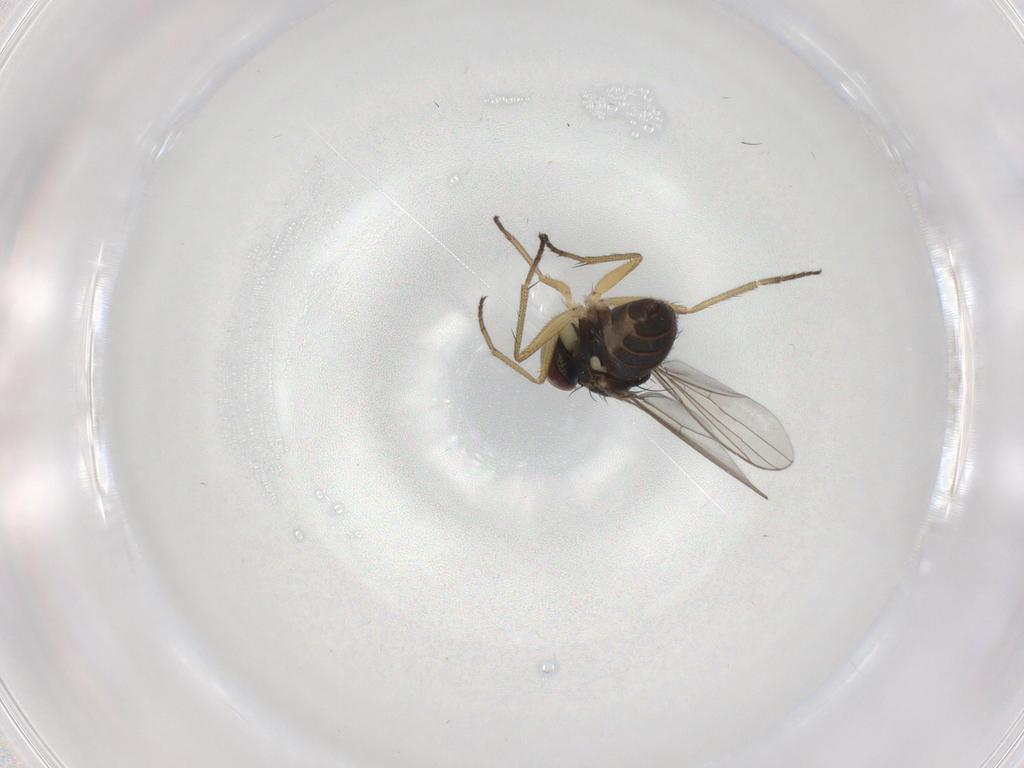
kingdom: Animalia
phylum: Arthropoda
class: Insecta
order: Diptera
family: Dolichopodidae
